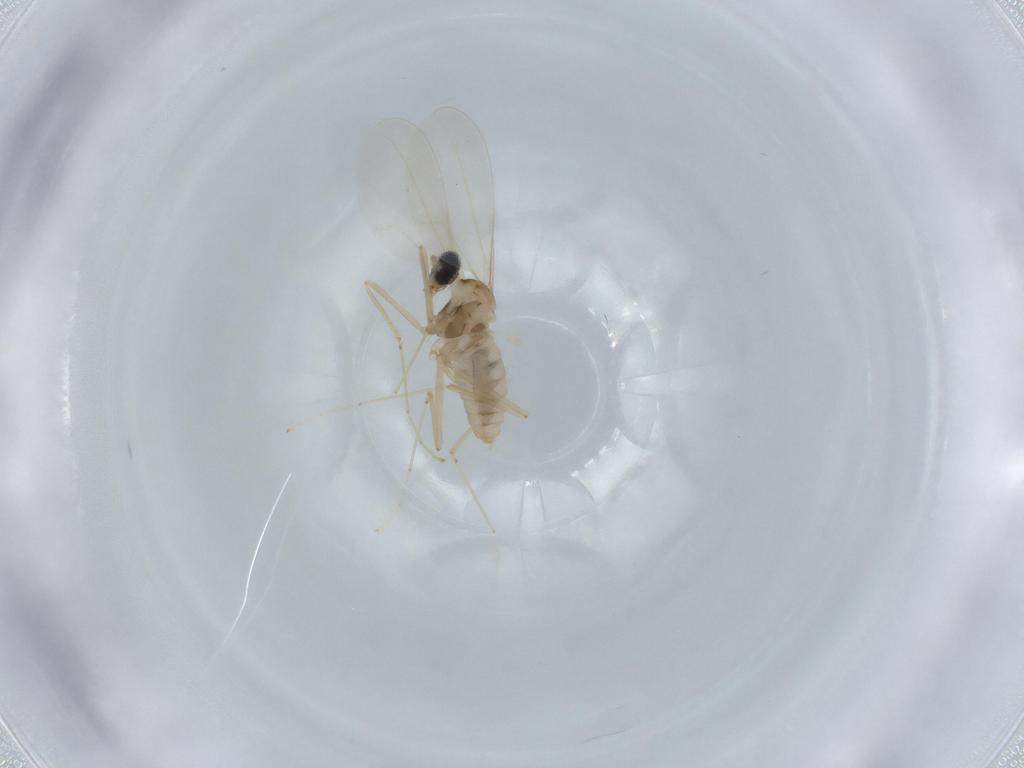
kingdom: Animalia
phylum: Arthropoda
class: Insecta
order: Diptera
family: Cecidomyiidae
